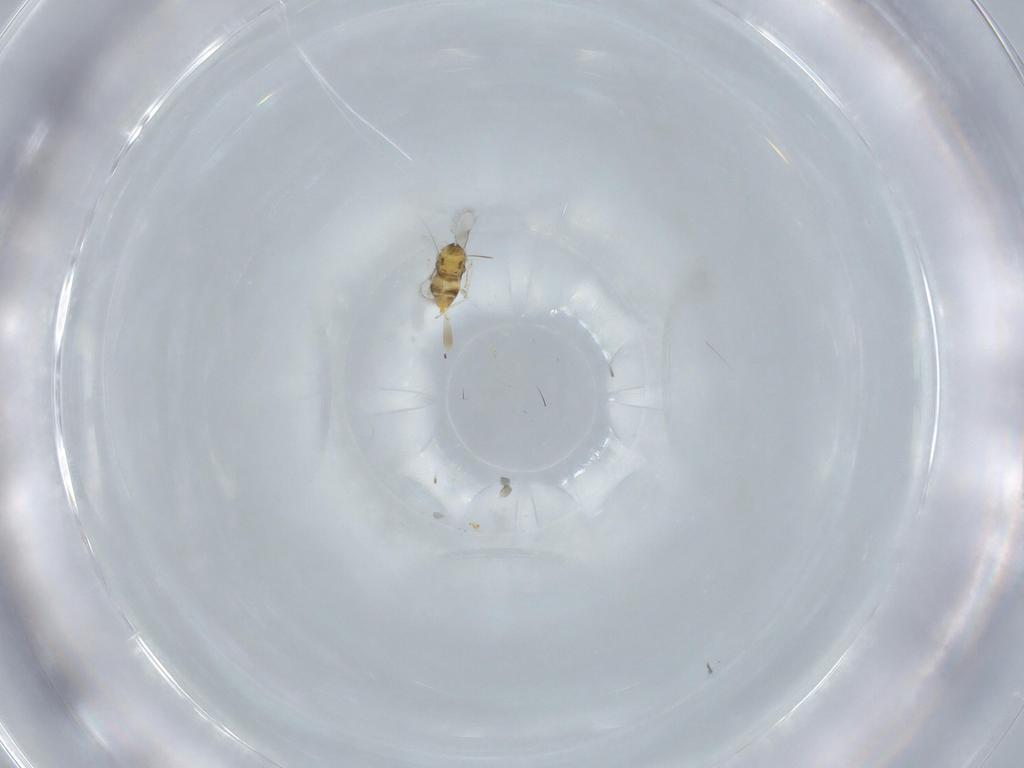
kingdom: Animalia
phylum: Arthropoda
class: Insecta
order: Hymenoptera
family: Aphelinidae
